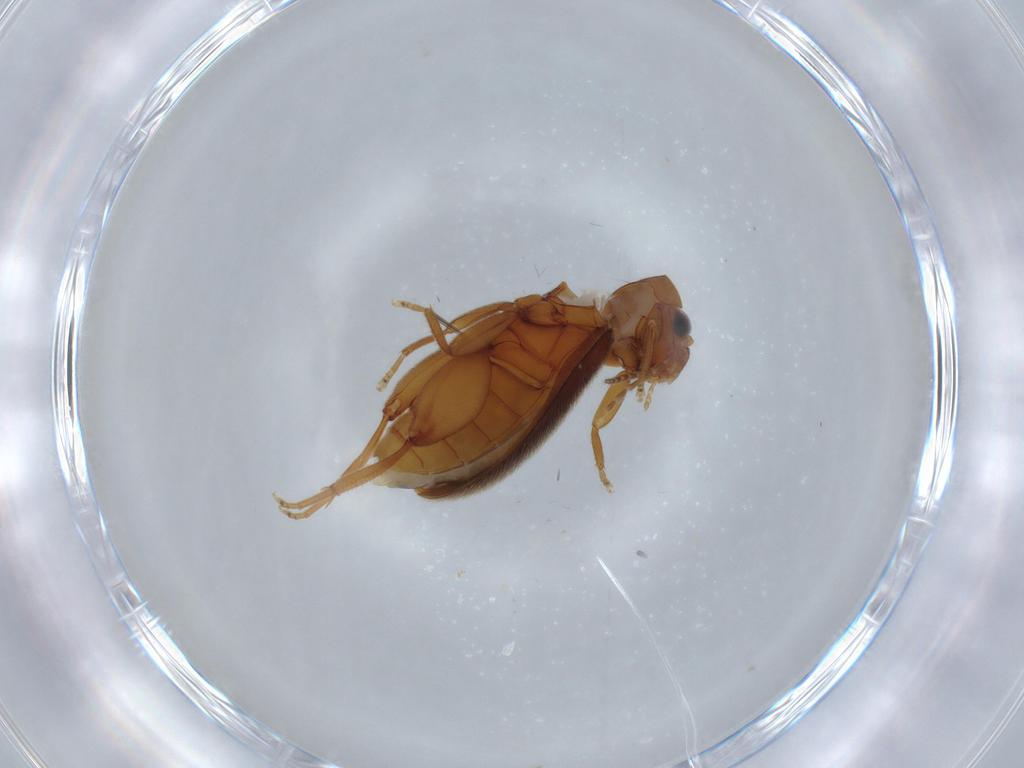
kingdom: Animalia
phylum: Arthropoda
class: Insecta
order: Coleoptera
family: Scirtidae
